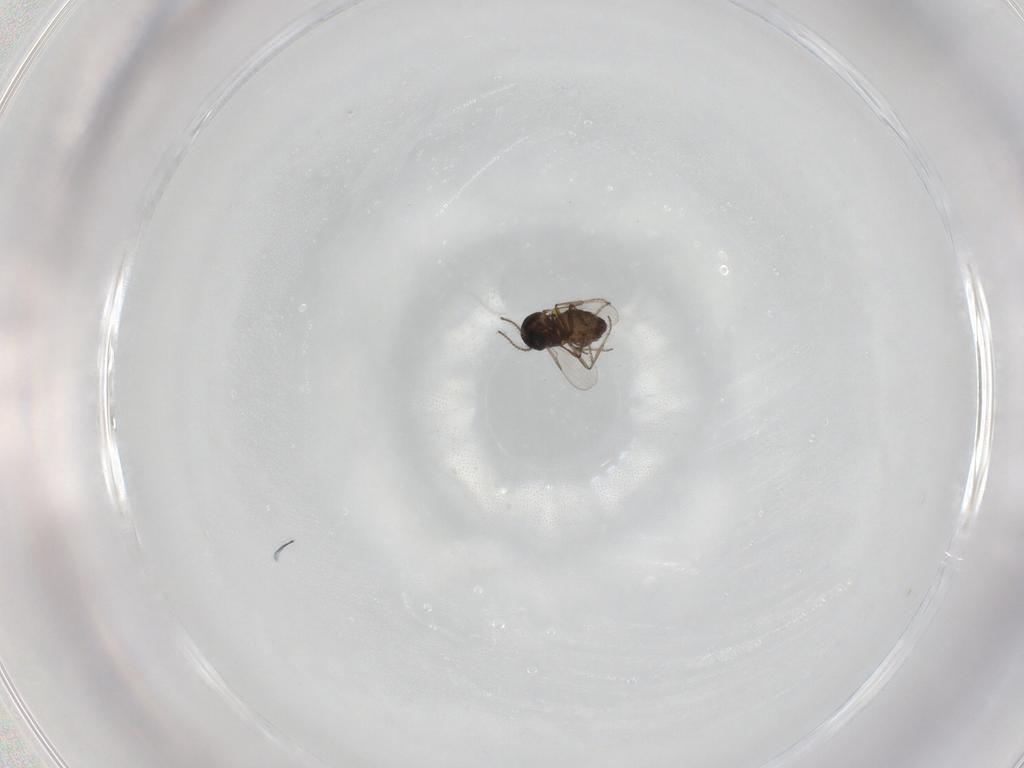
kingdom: Animalia
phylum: Arthropoda
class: Insecta
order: Diptera
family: Ceratopogonidae
